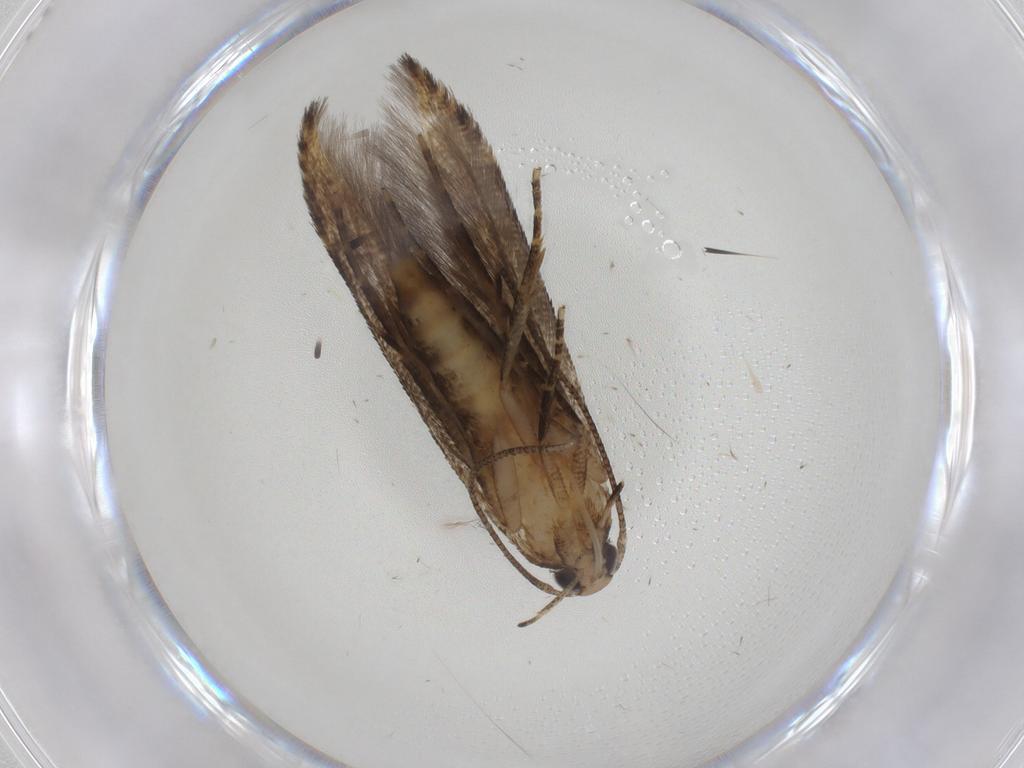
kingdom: Animalia
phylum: Arthropoda
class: Insecta
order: Lepidoptera
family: Gelechiidae
